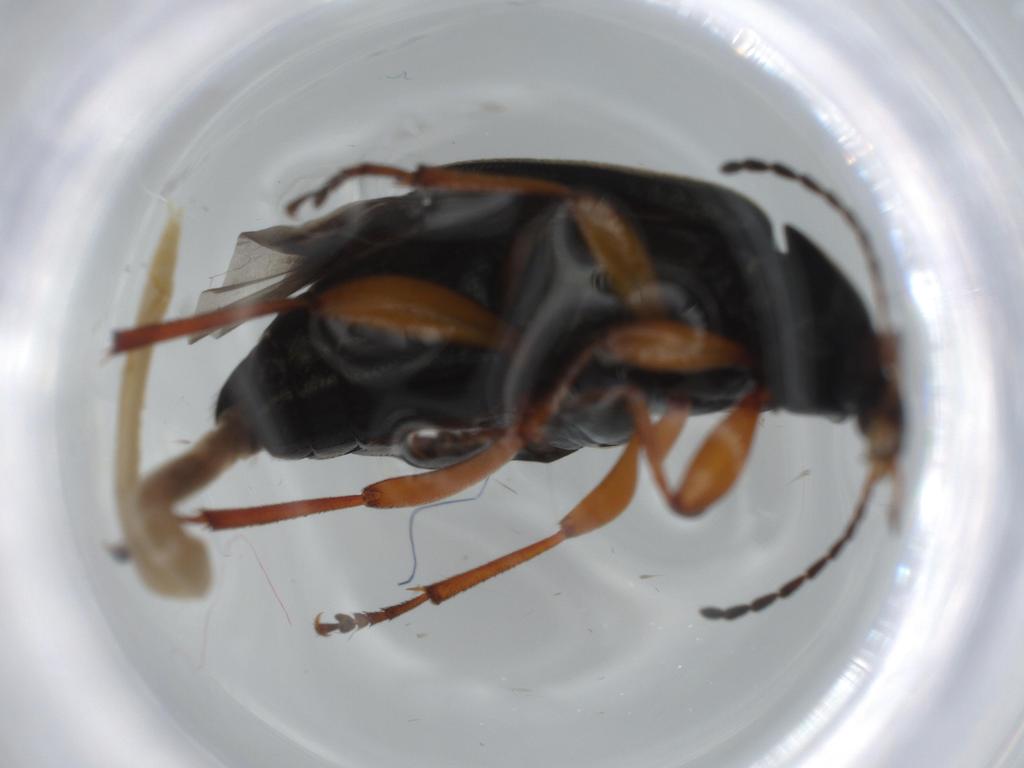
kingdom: Animalia
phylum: Arthropoda
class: Insecta
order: Coleoptera
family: Tenebrionidae
